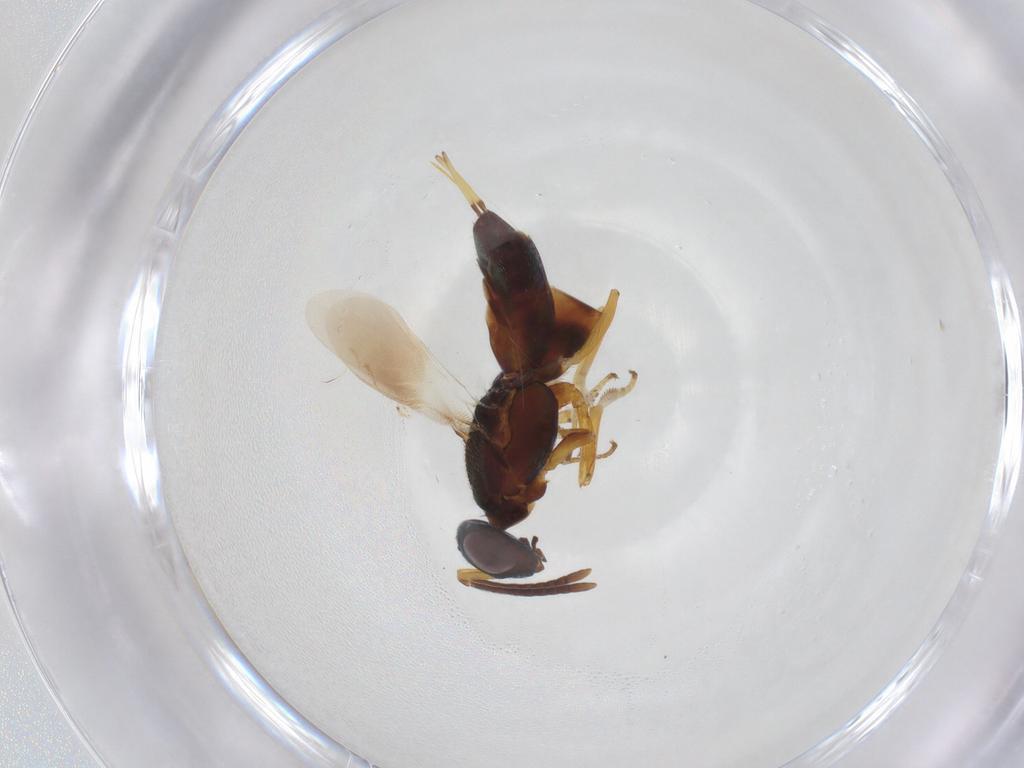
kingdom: Animalia
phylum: Arthropoda
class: Insecta
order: Hymenoptera
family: Eupelmidae
